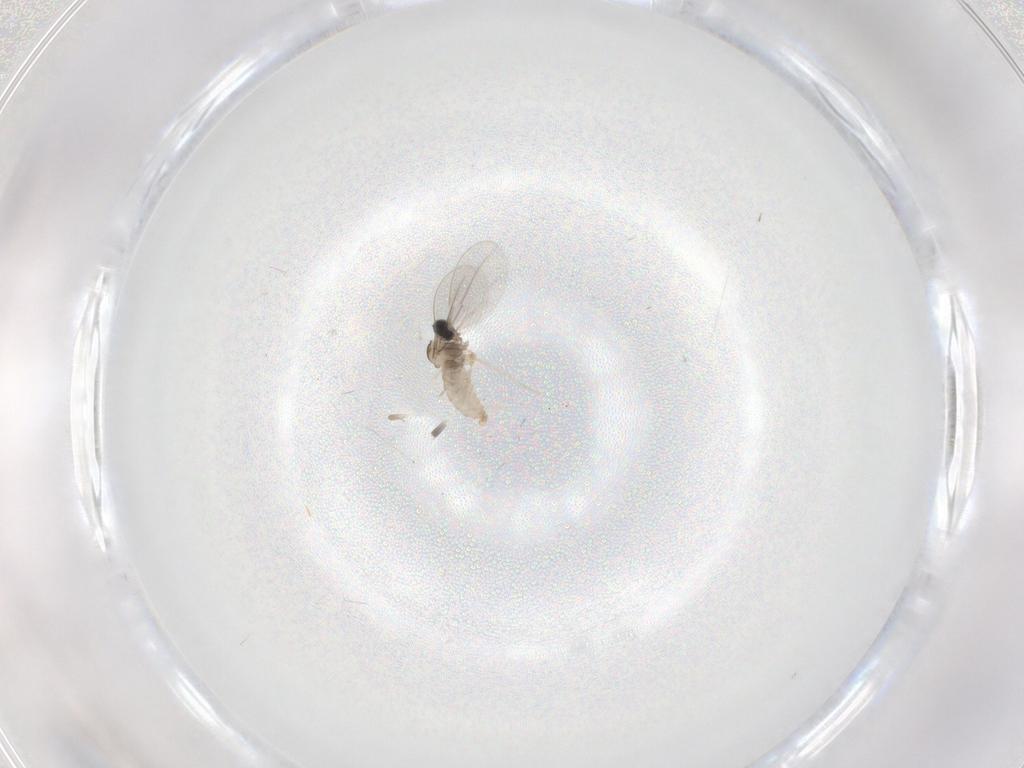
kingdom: Animalia
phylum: Arthropoda
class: Insecta
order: Diptera
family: Cecidomyiidae
